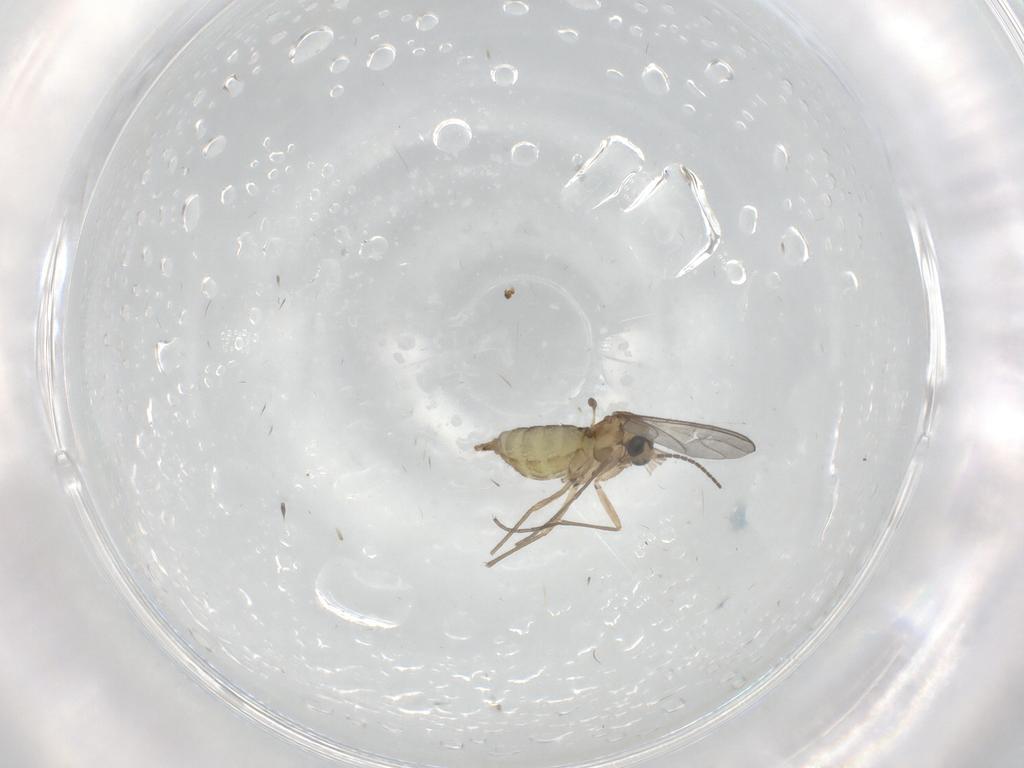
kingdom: Animalia
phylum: Arthropoda
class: Insecta
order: Diptera
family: Sciaridae
